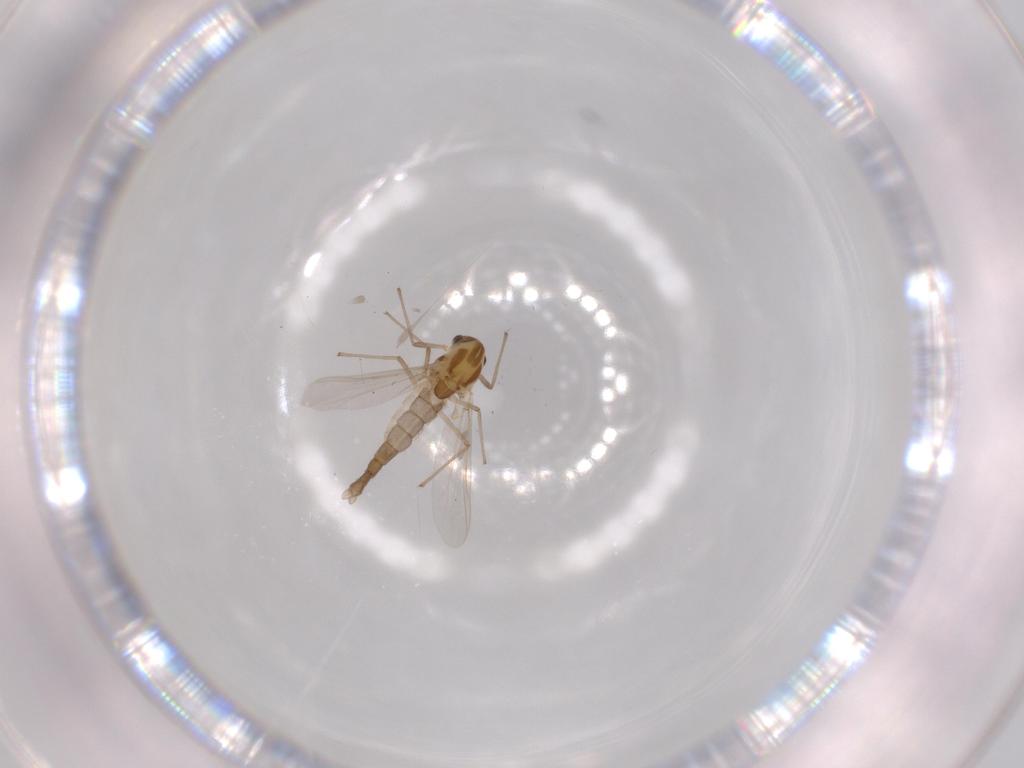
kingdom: Animalia
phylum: Arthropoda
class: Insecta
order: Diptera
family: Chironomidae
